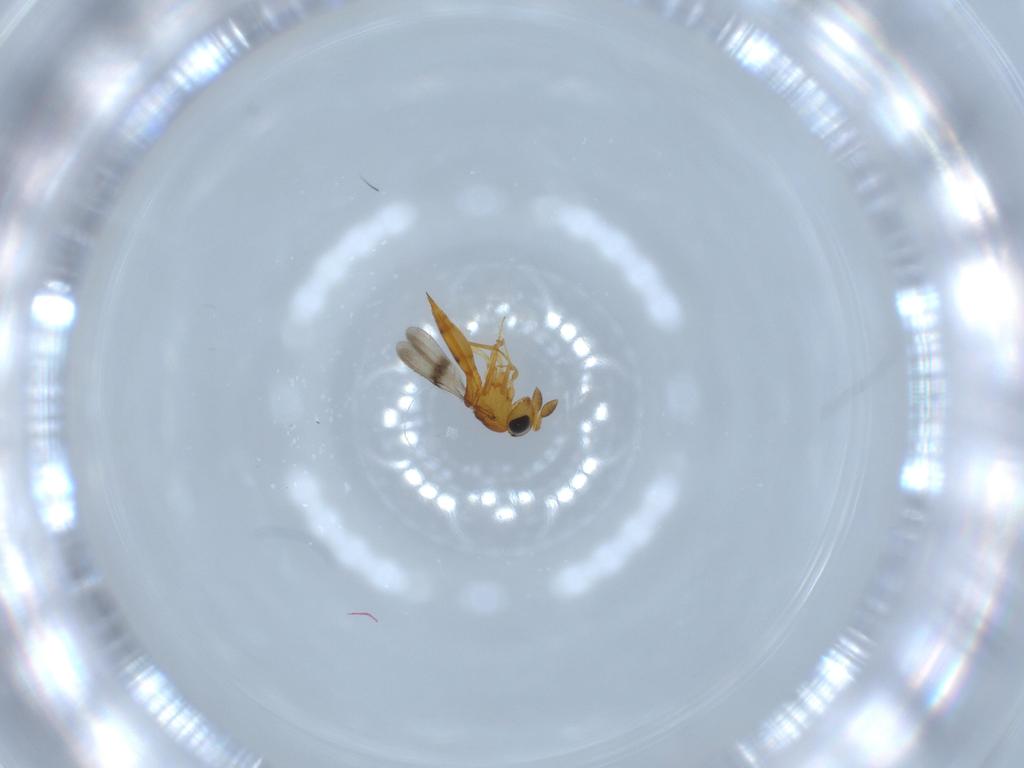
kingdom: Animalia
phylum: Arthropoda
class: Insecta
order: Hymenoptera
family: Scelionidae
